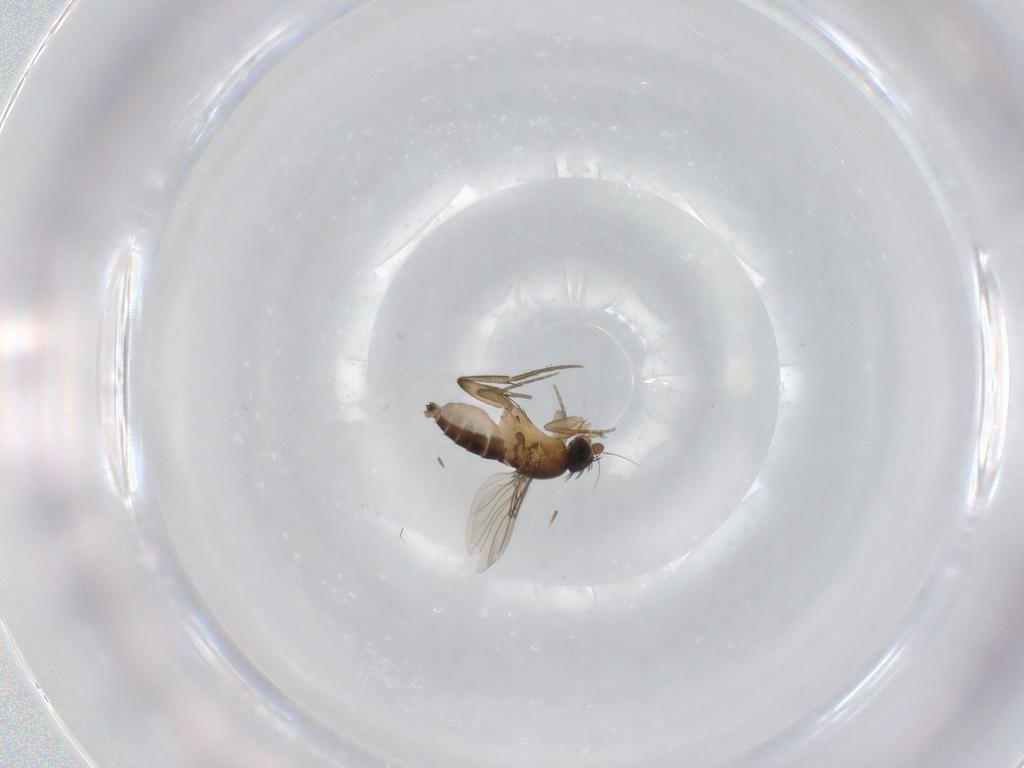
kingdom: Animalia
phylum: Arthropoda
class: Insecta
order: Diptera
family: Phoridae
